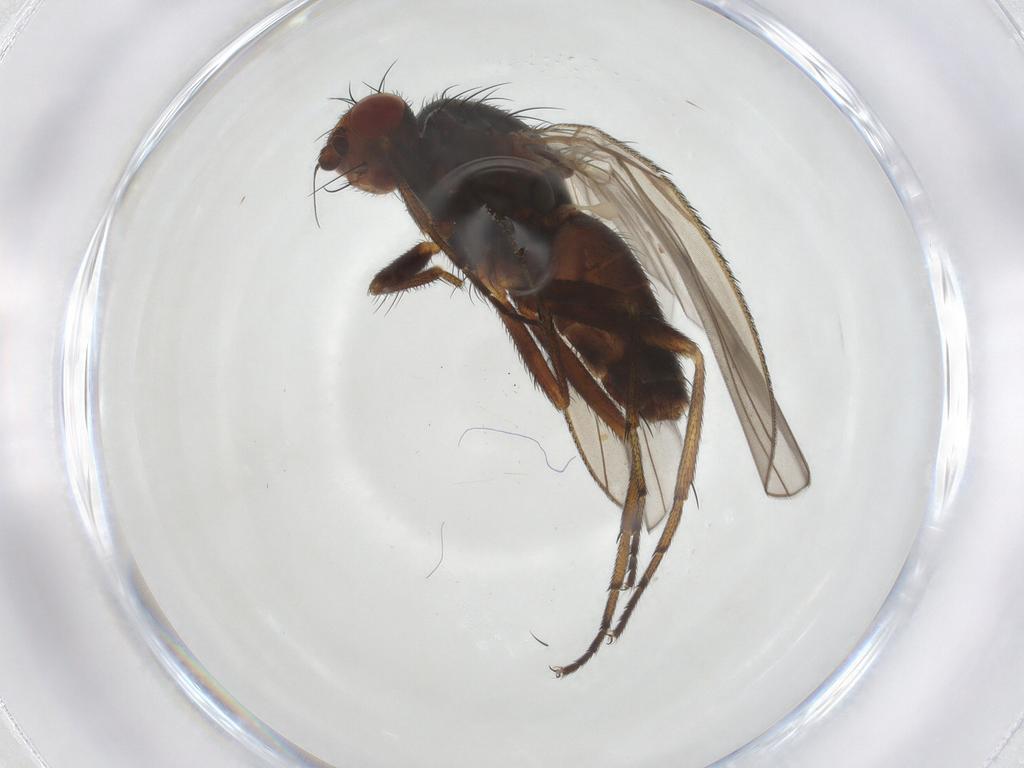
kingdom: Animalia
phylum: Arthropoda
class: Insecta
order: Diptera
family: Heleomyzidae
